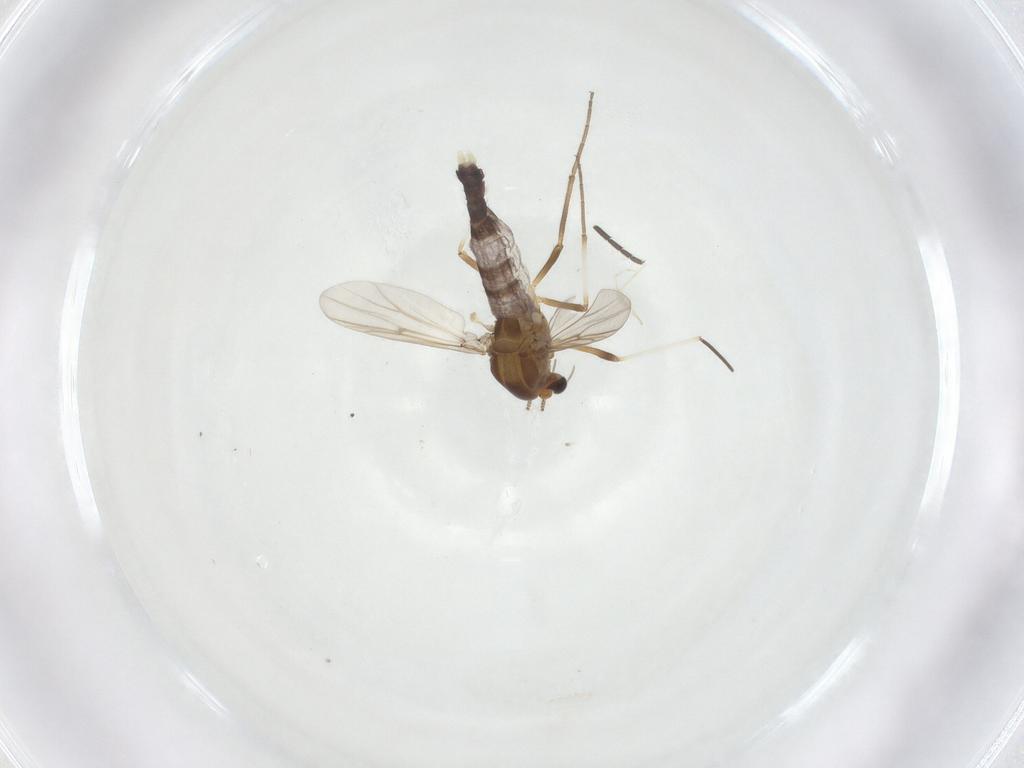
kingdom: Animalia
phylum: Arthropoda
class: Insecta
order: Diptera
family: Chironomidae
